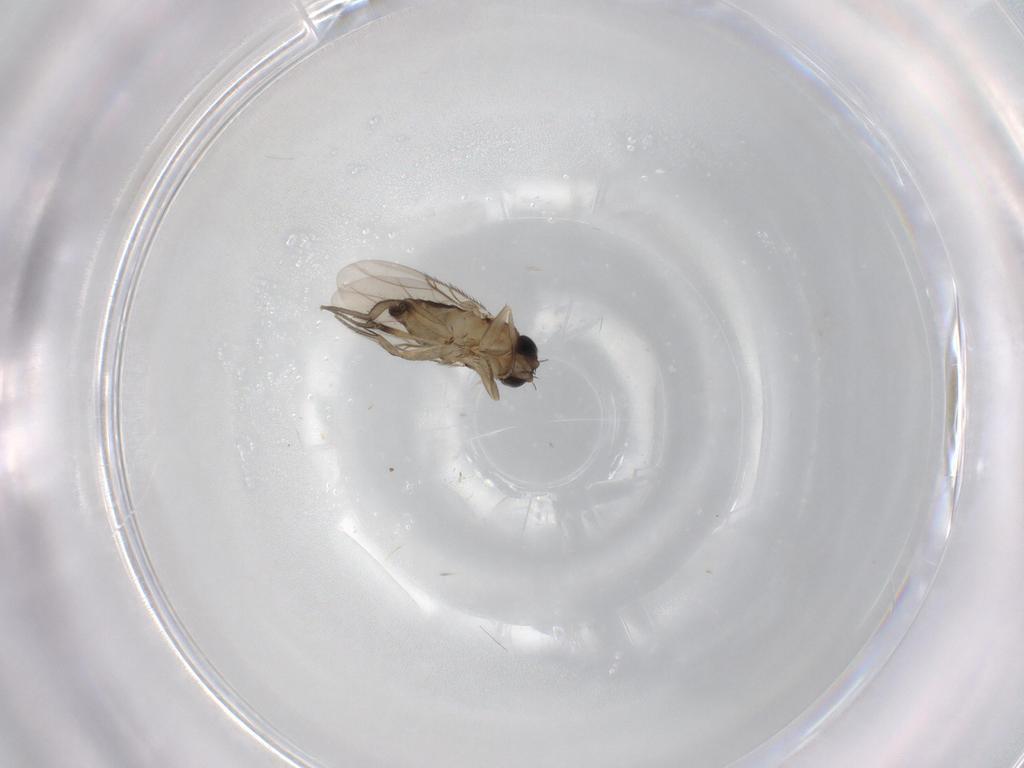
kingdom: Animalia
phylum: Arthropoda
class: Insecta
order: Diptera
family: Phoridae
